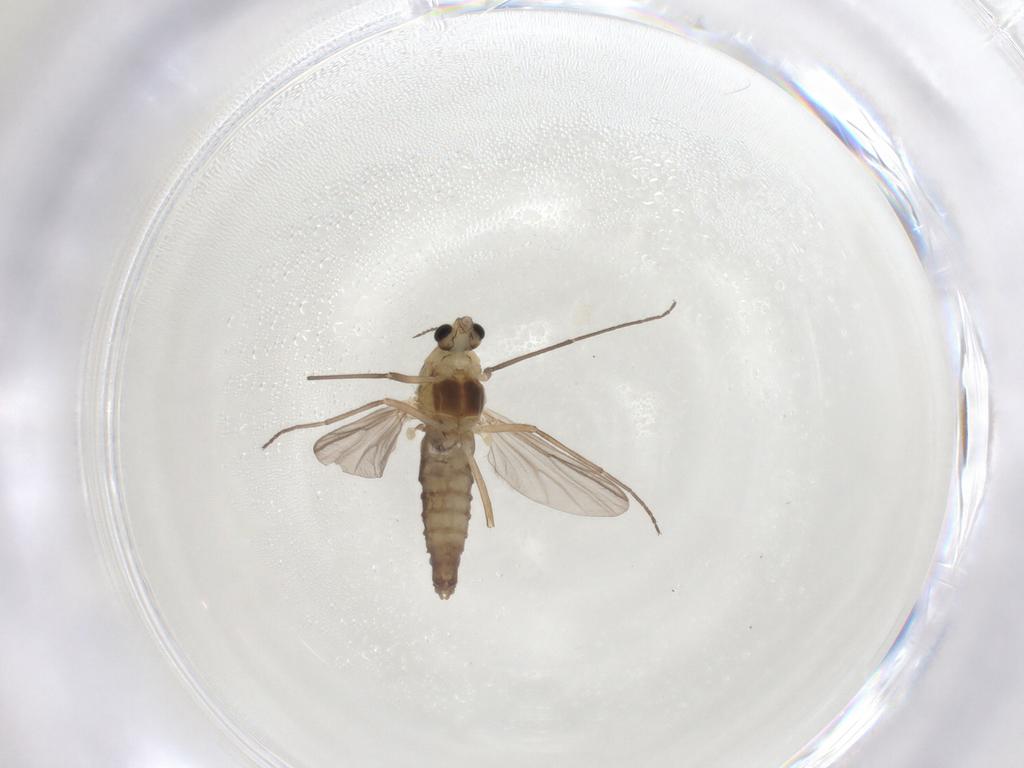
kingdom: Animalia
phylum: Arthropoda
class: Insecta
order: Diptera
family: Chironomidae
